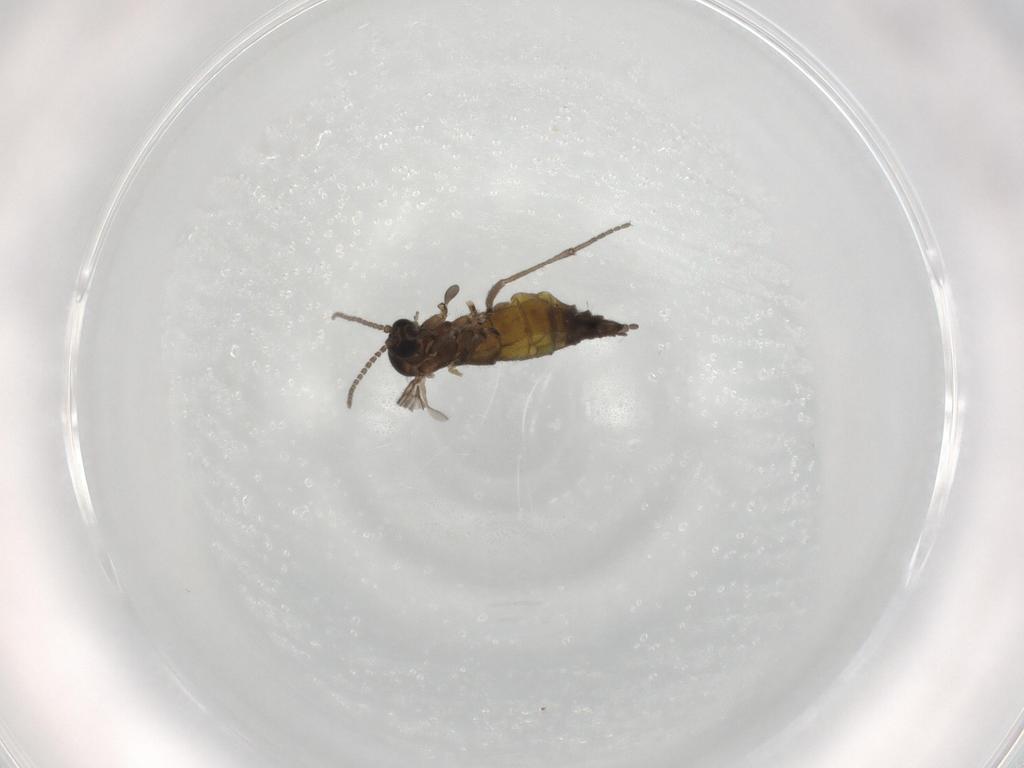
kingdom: Animalia
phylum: Arthropoda
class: Insecta
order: Diptera
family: Sciaridae
